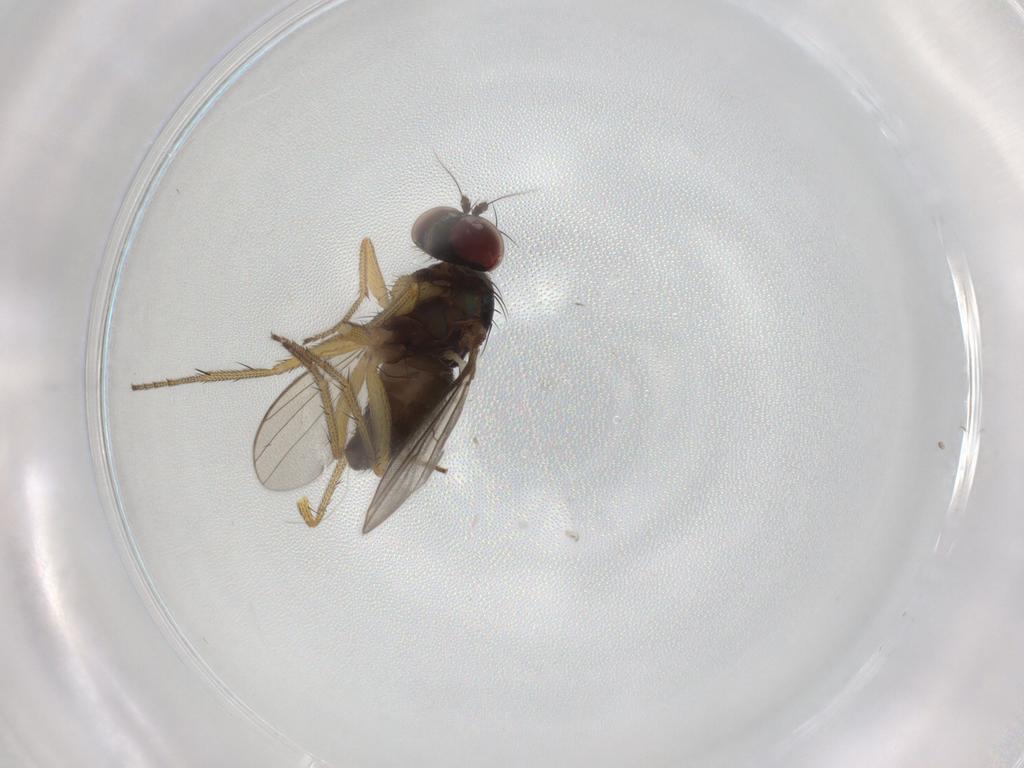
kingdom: Animalia
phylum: Arthropoda
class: Insecta
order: Diptera
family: Dolichopodidae
